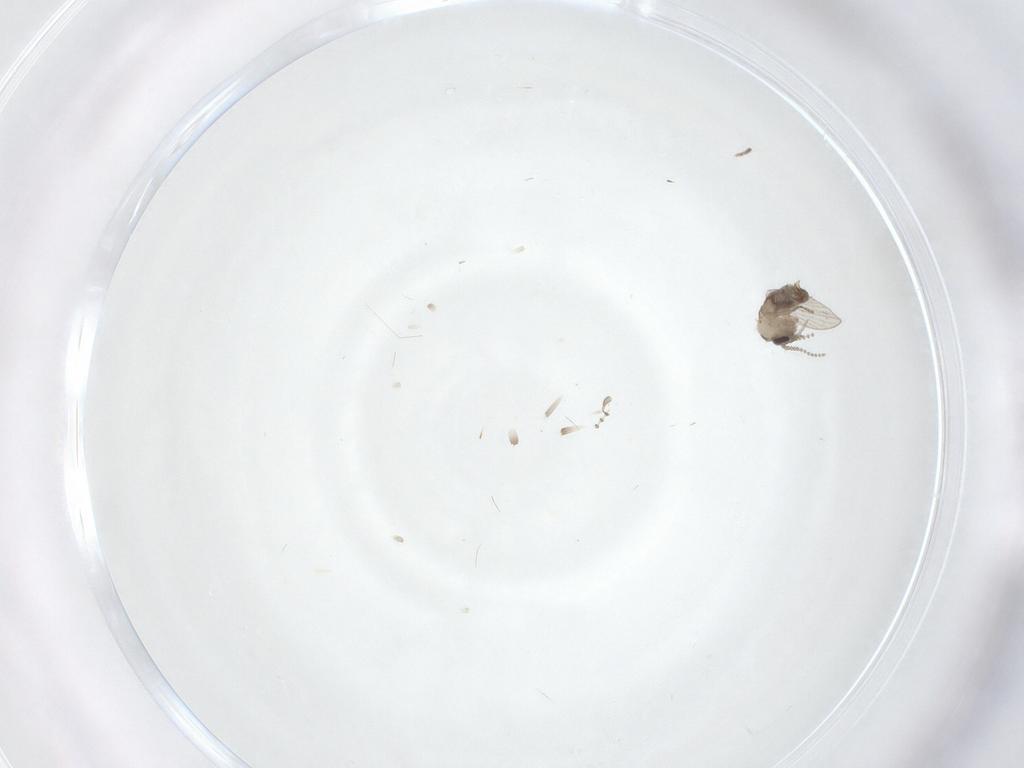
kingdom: Animalia
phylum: Arthropoda
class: Insecta
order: Diptera
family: Psychodidae
